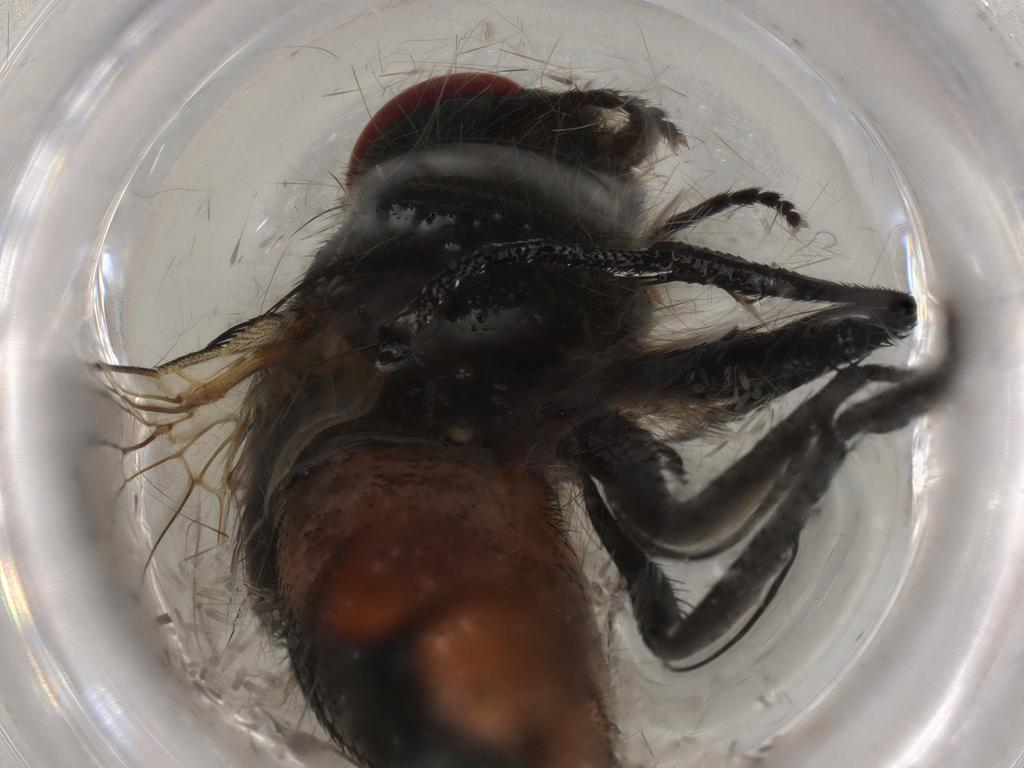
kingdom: Animalia
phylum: Arthropoda
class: Insecta
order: Diptera
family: Muscidae
